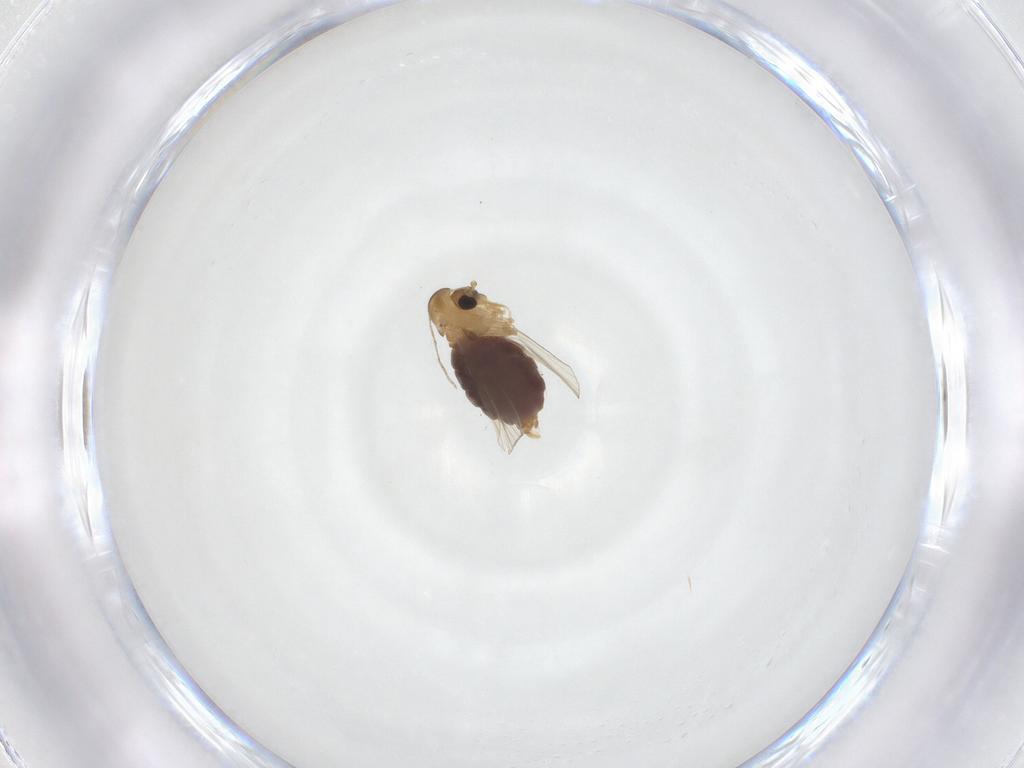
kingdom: Animalia
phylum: Arthropoda
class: Insecta
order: Diptera
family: Psychodidae
